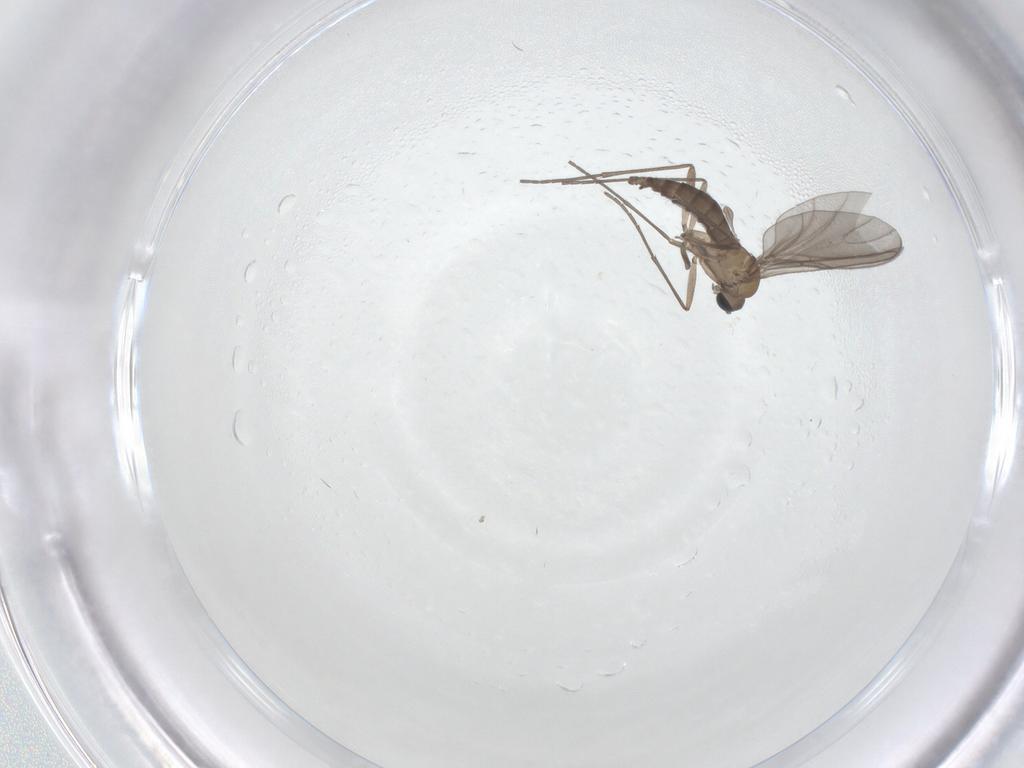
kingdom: Animalia
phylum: Arthropoda
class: Insecta
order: Diptera
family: Sciaridae
